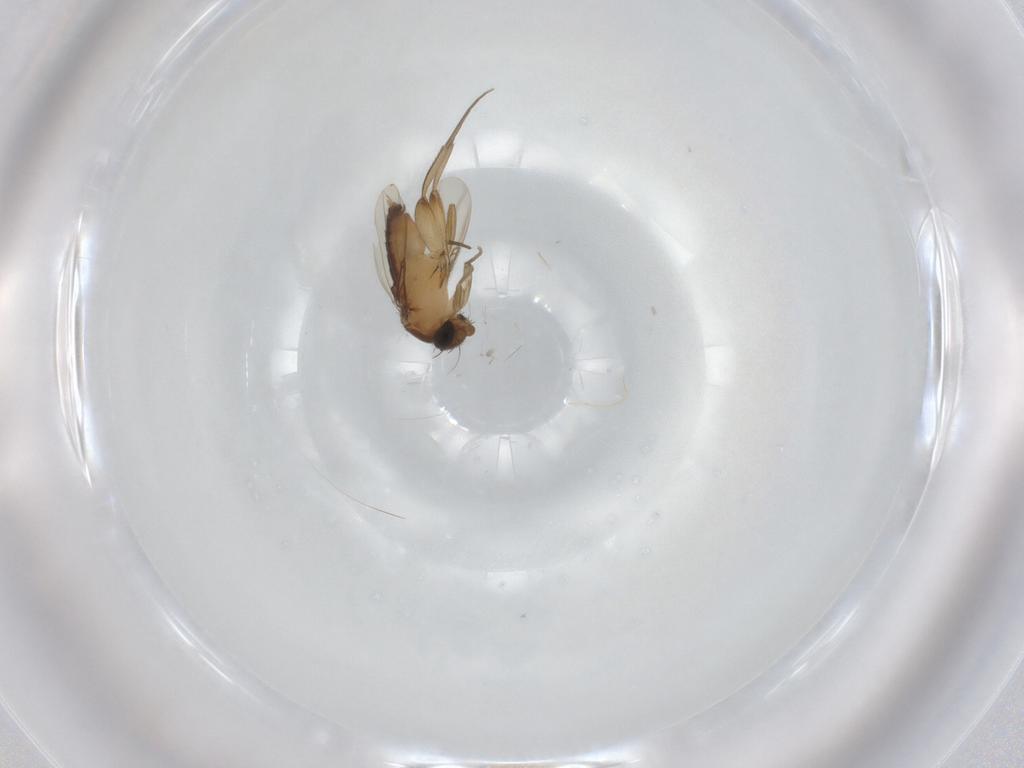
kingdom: Animalia
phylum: Arthropoda
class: Insecta
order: Diptera
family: Phoridae
